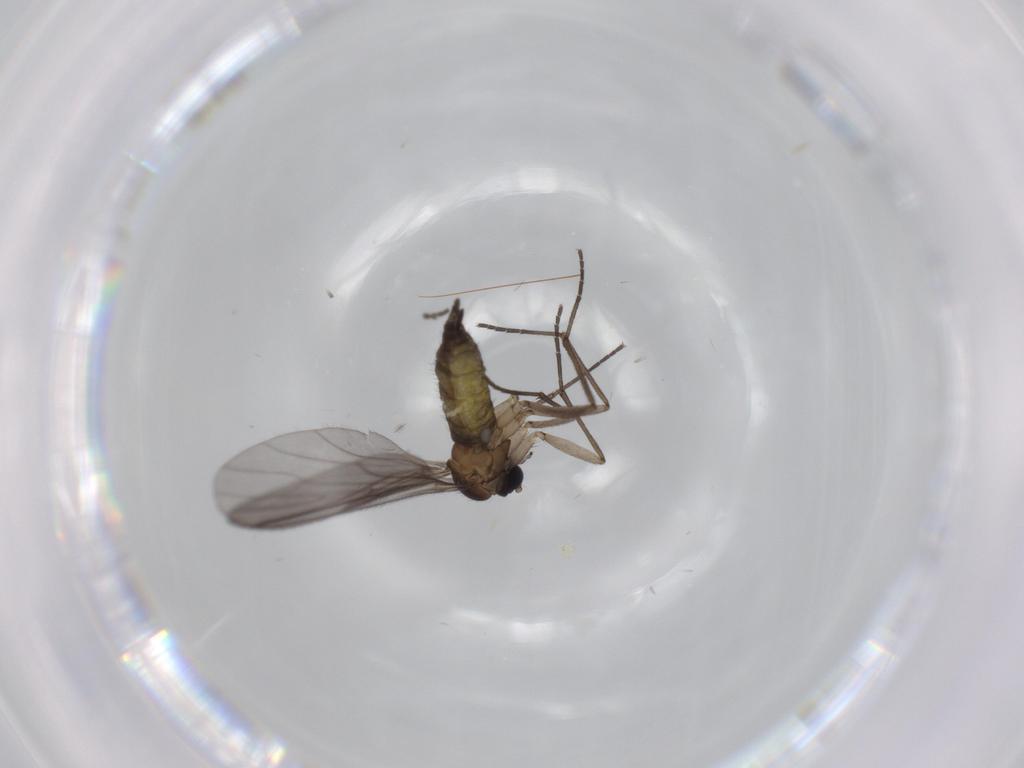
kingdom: Animalia
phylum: Arthropoda
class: Insecta
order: Diptera
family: Sciaridae
